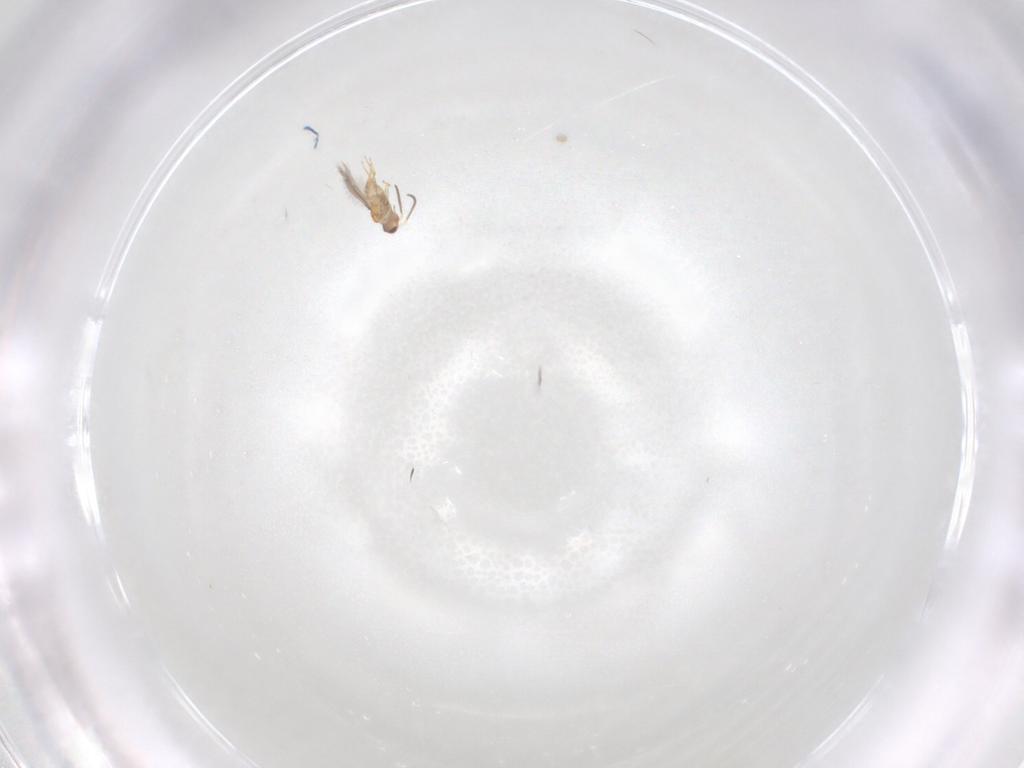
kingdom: Animalia
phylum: Arthropoda
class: Insecta
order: Hymenoptera
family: Mymaridae
